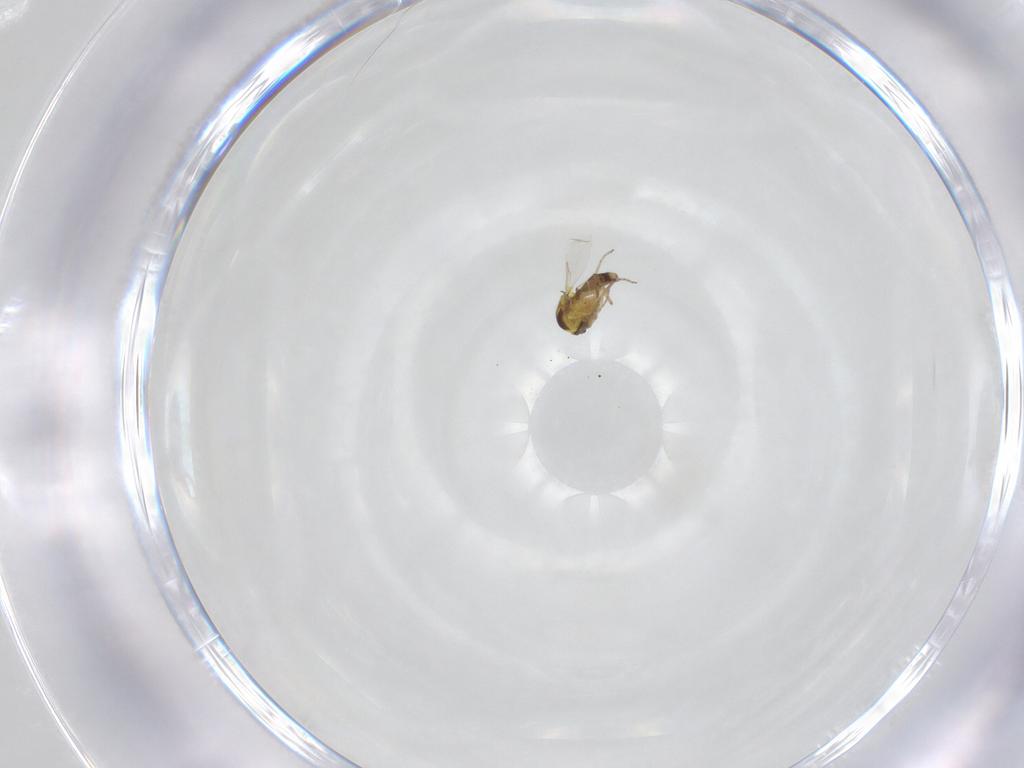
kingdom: Animalia
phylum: Arthropoda
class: Insecta
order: Diptera
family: Ceratopogonidae
